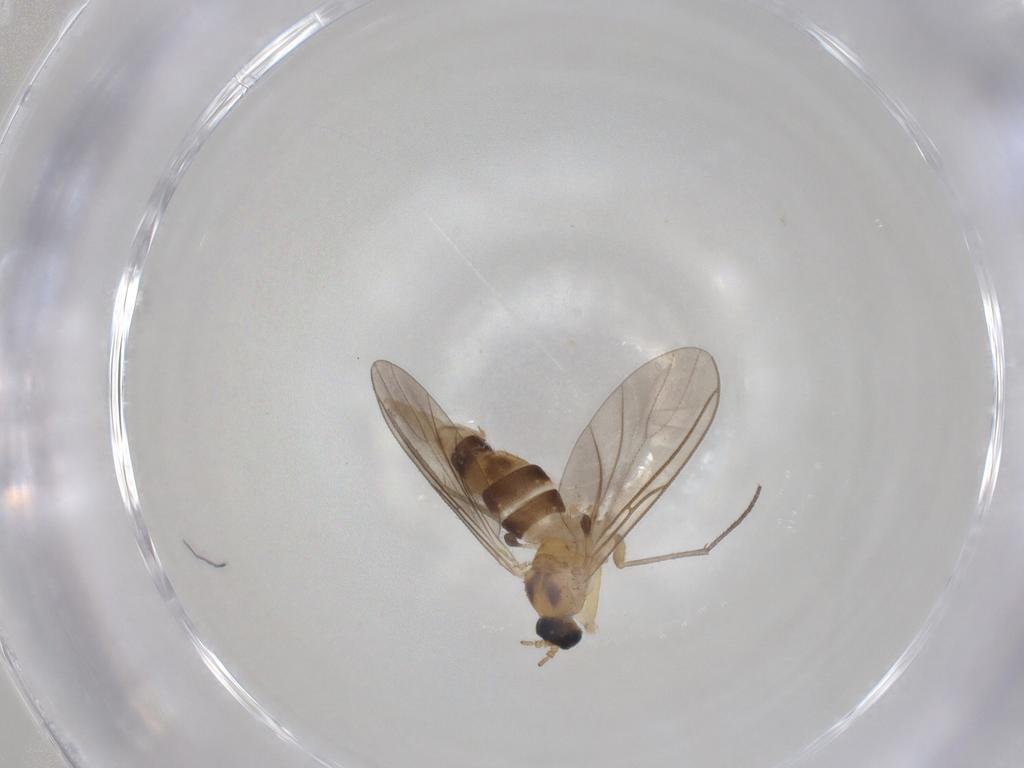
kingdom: Animalia
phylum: Arthropoda
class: Insecta
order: Diptera
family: Sciaridae
